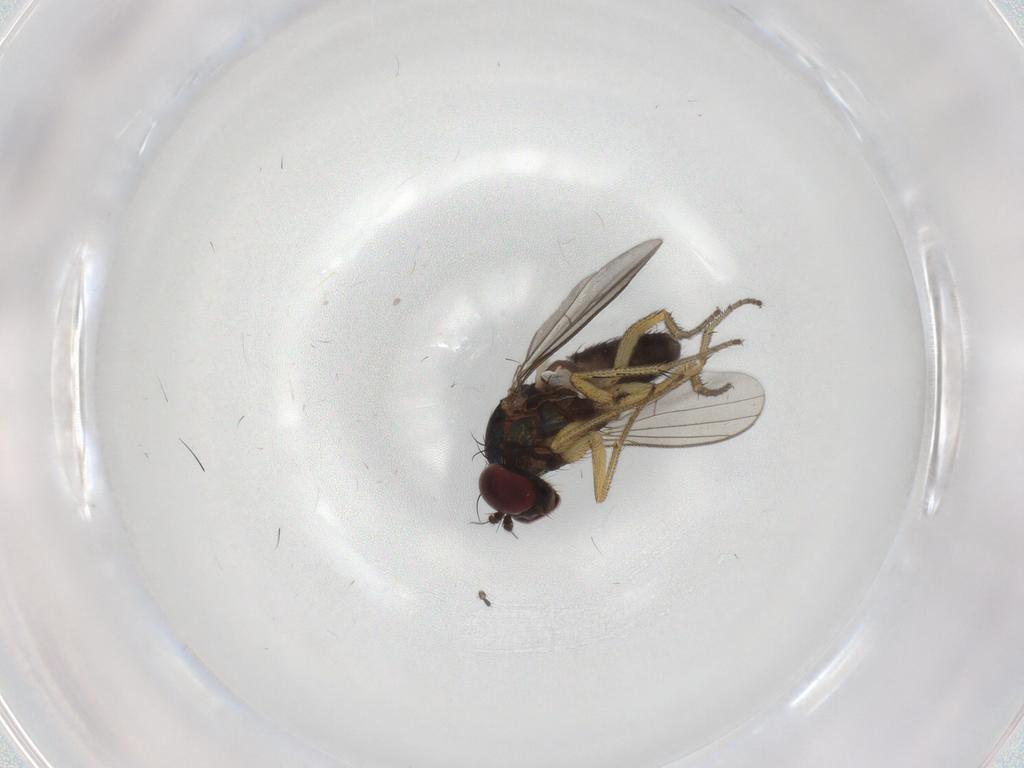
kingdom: Animalia
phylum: Arthropoda
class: Insecta
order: Diptera
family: Dolichopodidae
